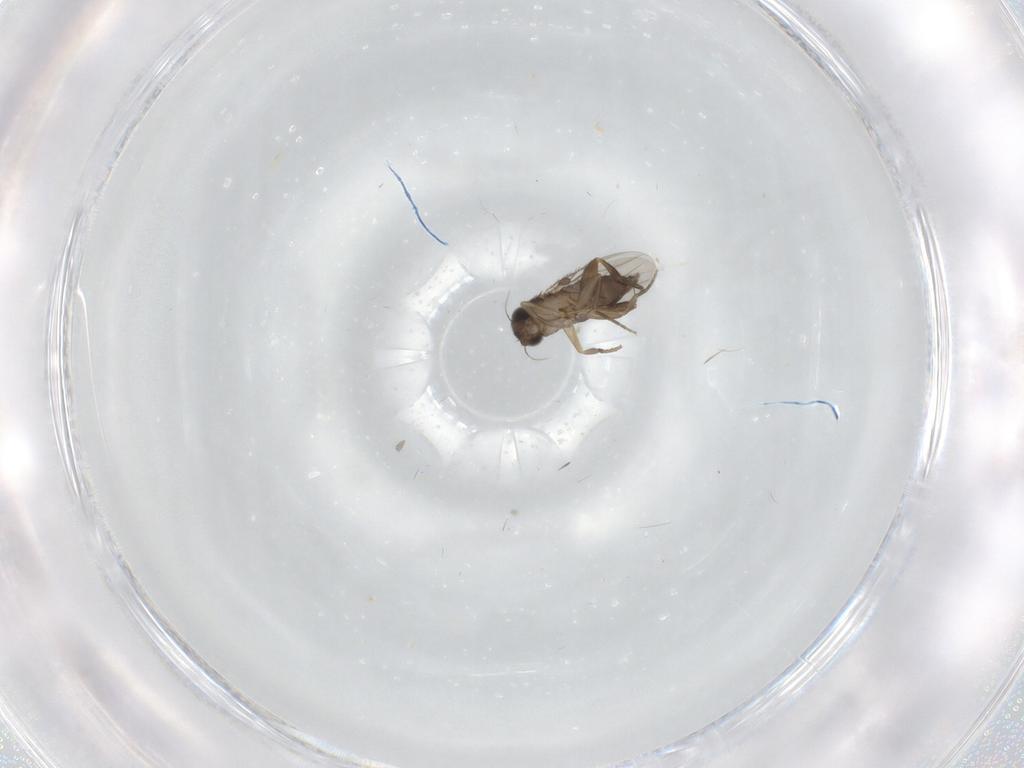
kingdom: Animalia
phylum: Arthropoda
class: Insecta
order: Diptera
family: Phoridae
